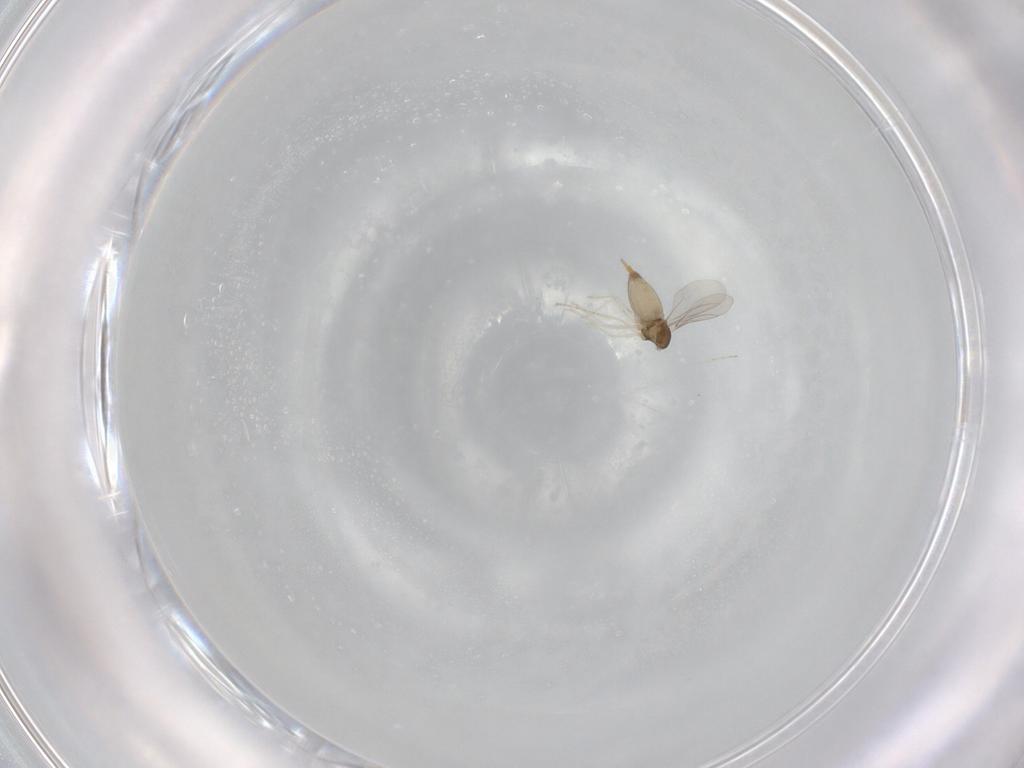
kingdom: Animalia
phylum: Arthropoda
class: Insecta
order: Diptera
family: Cecidomyiidae
